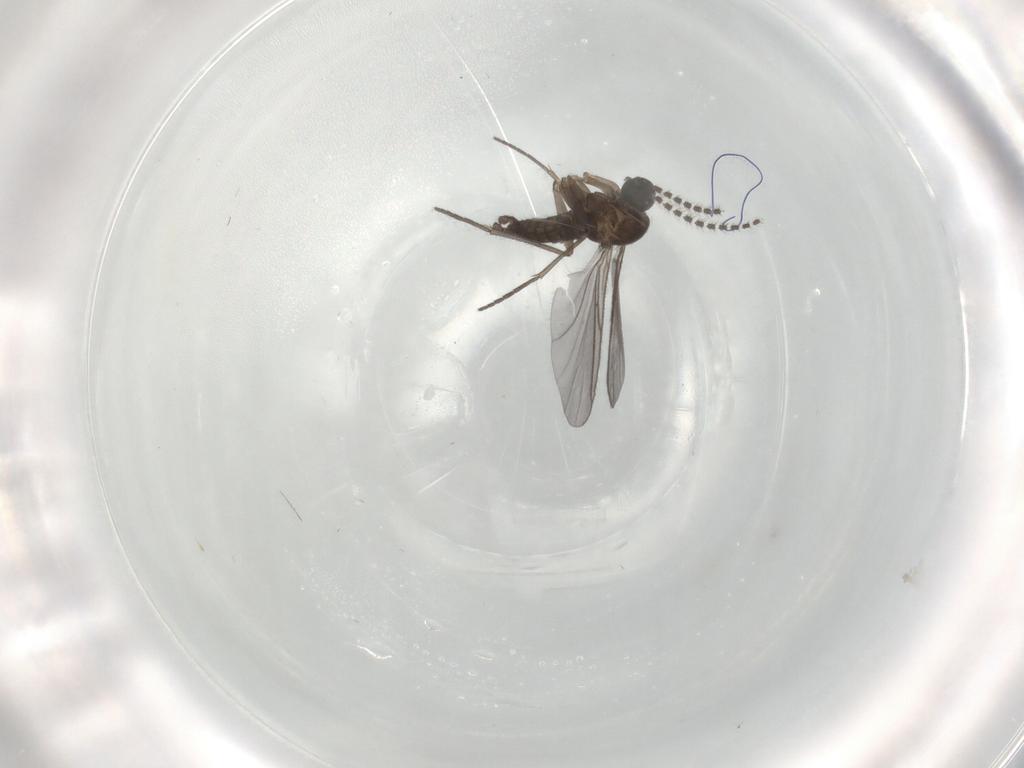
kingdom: Animalia
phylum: Arthropoda
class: Insecta
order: Diptera
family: Sciaridae
